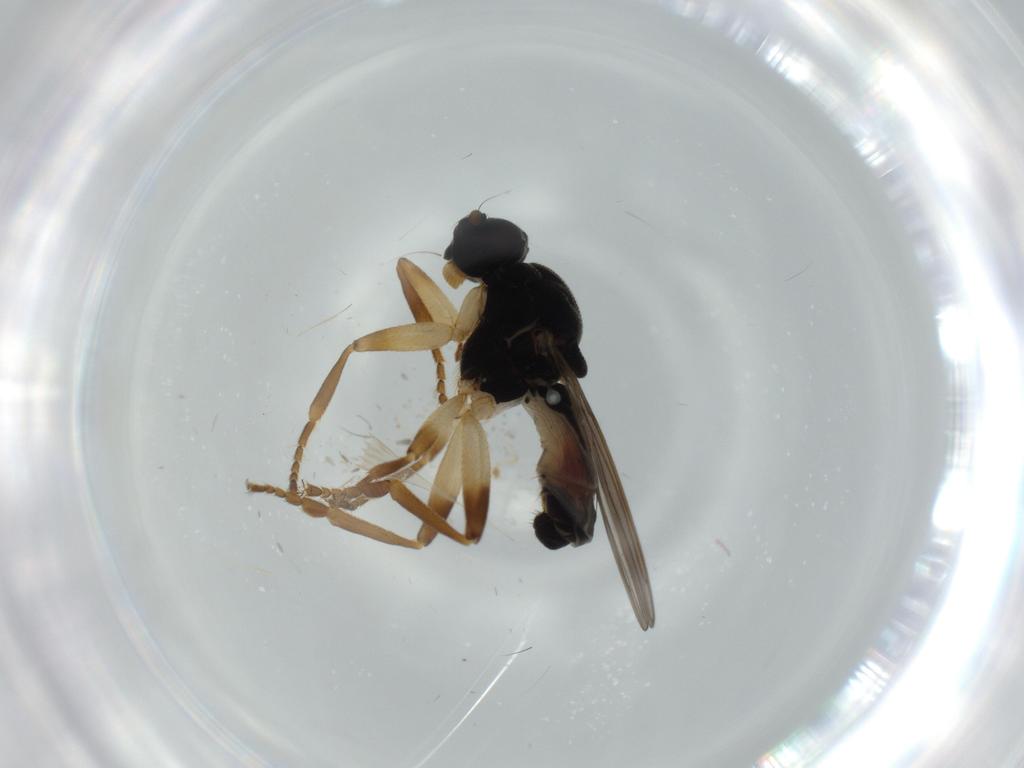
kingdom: Animalia
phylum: Arthropoda
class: Insecta
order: Diptera
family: Sphaeroceridae
